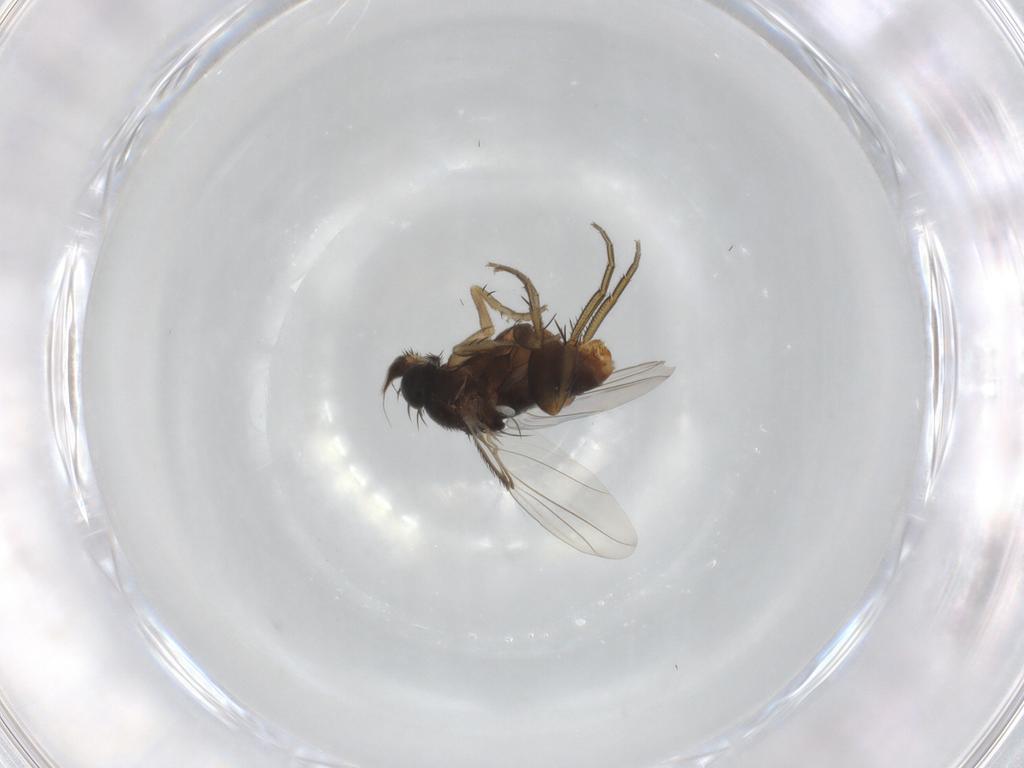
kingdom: Animalia
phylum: Arthropoda
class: Insecta
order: Diptera
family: Phoridae
